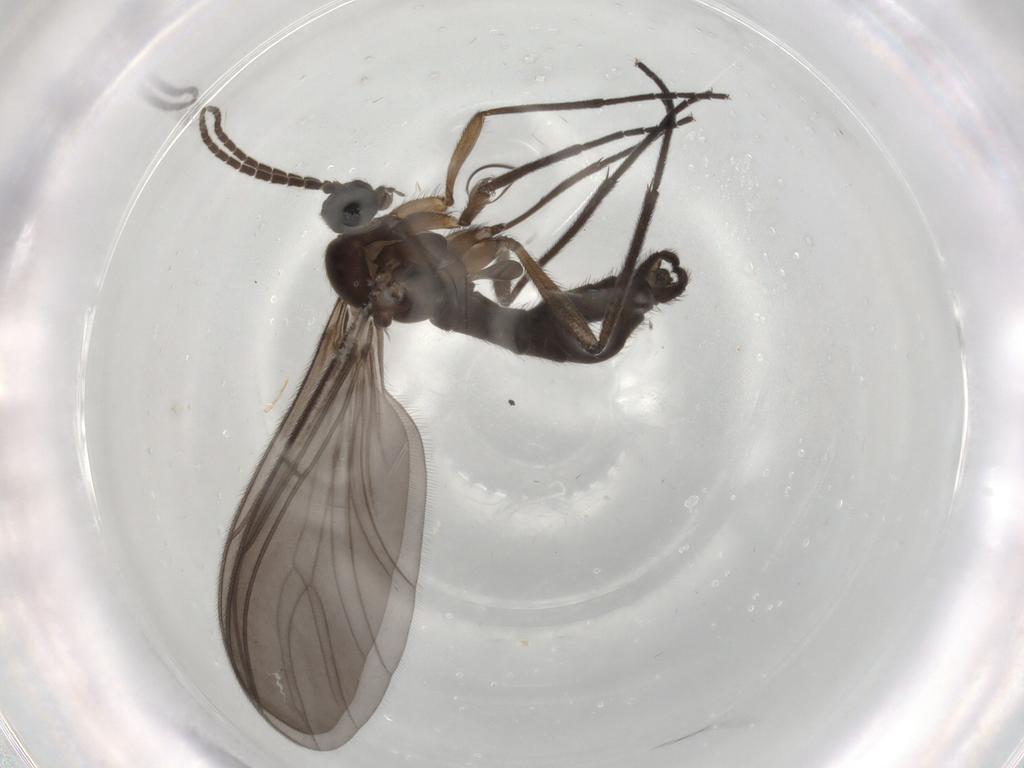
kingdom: Animalia
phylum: Arthropoda
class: Insecta
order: Diptera
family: Sciaridae
